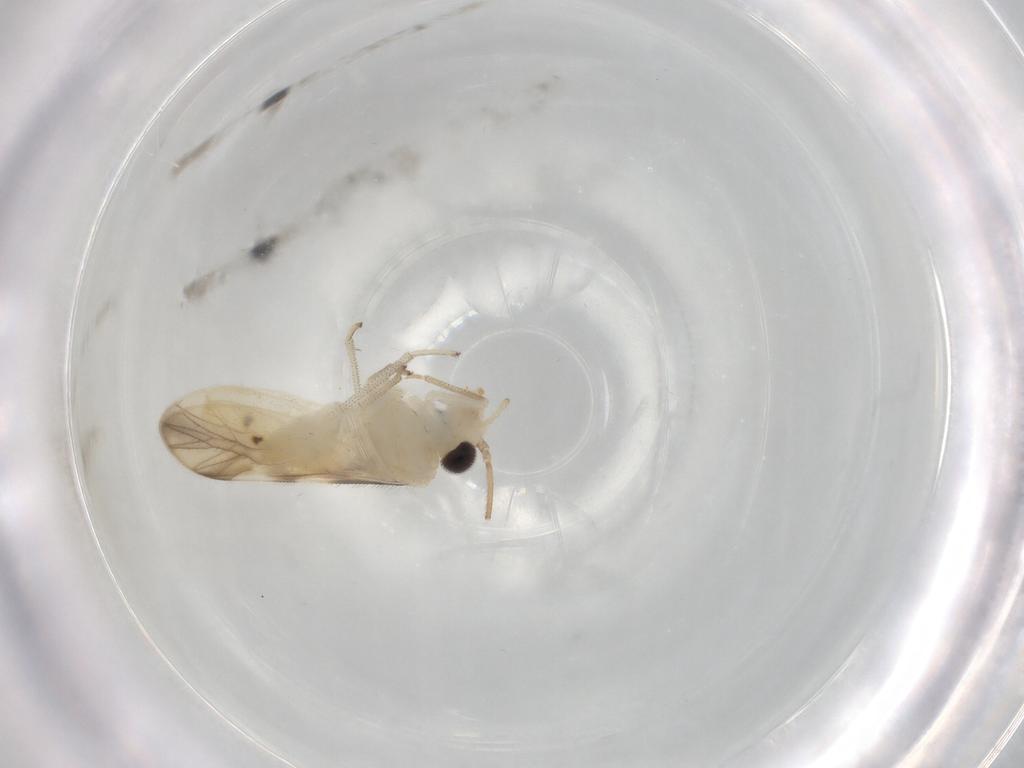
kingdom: Animalia
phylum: Arthropoda
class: Insecta
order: Psocodea
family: Caeciliusidae
